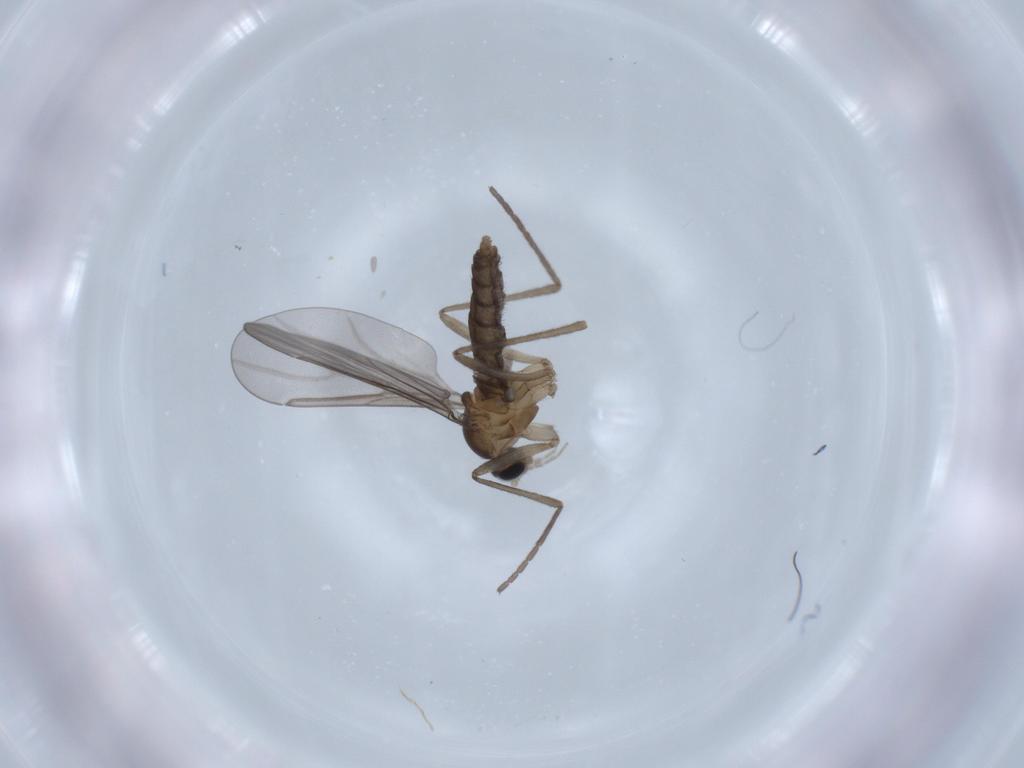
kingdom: Animalia
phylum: Arthropoda
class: Insecta
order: Diptera
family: Cecidomyiidae
